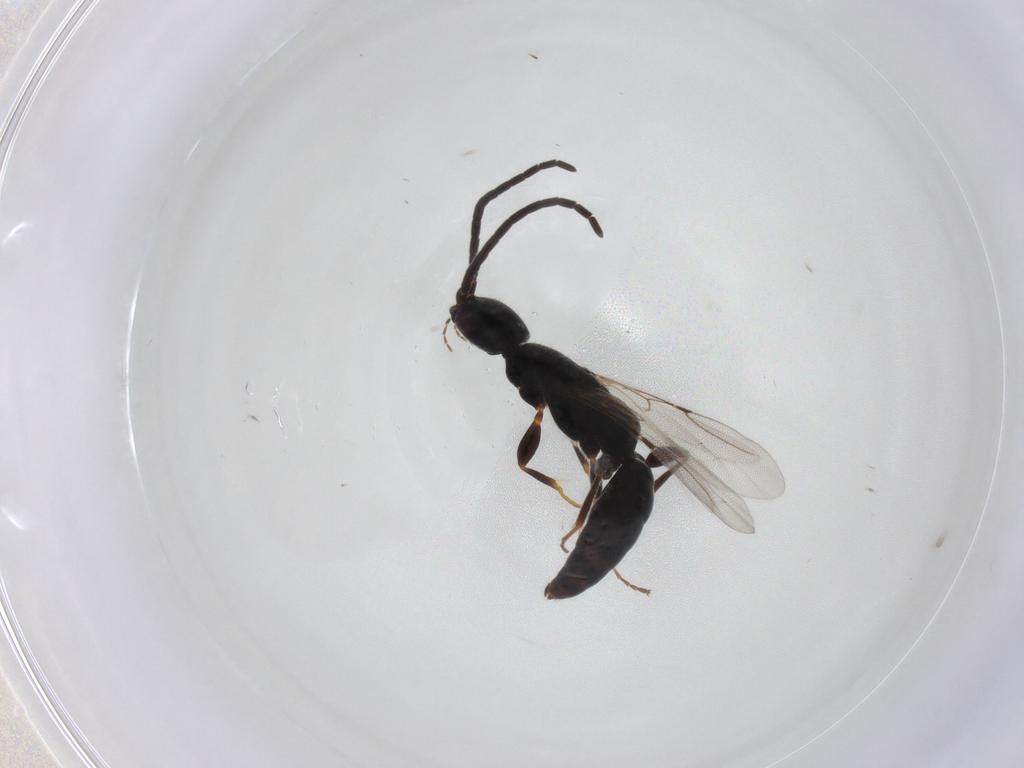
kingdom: Animalia
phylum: Arthropoda
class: Insecta
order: Hymenoptera
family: Bethylidae
